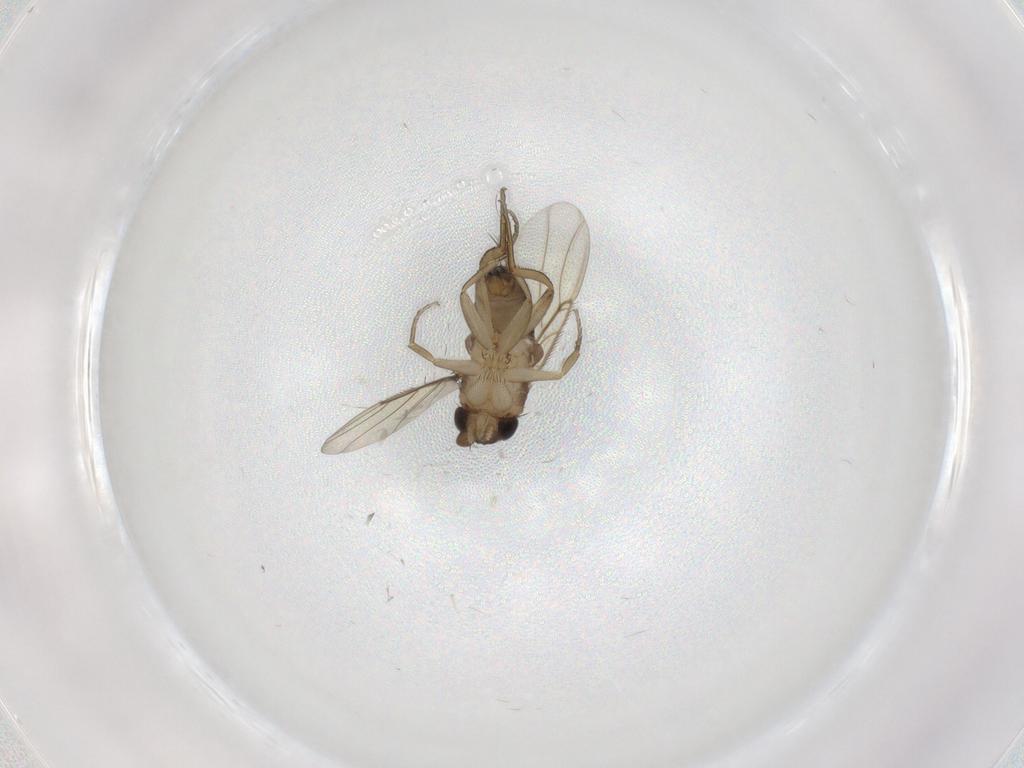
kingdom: Animalia
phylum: Arthropoda
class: Insecta
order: Diptera
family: Phoridae
